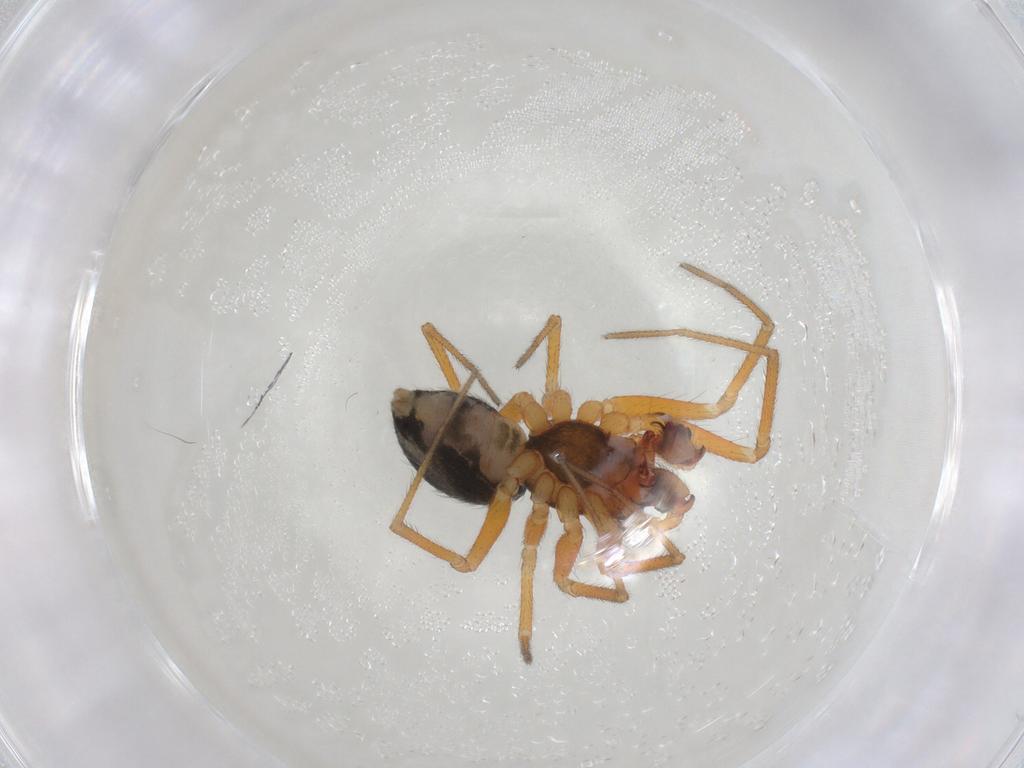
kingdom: Animalia
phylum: Arthropoda
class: Arachnida
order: Araneae
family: Linyphiidae
